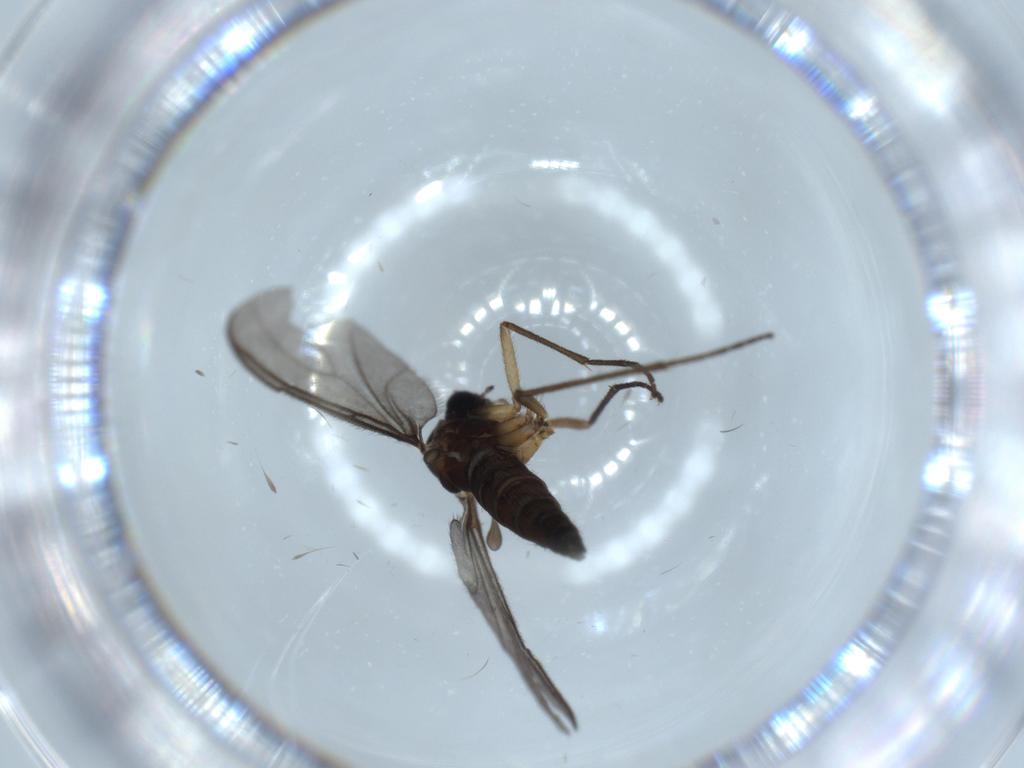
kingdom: Animalia
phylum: Arthropoda
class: Insecta
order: Diptera
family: Sciaridae
